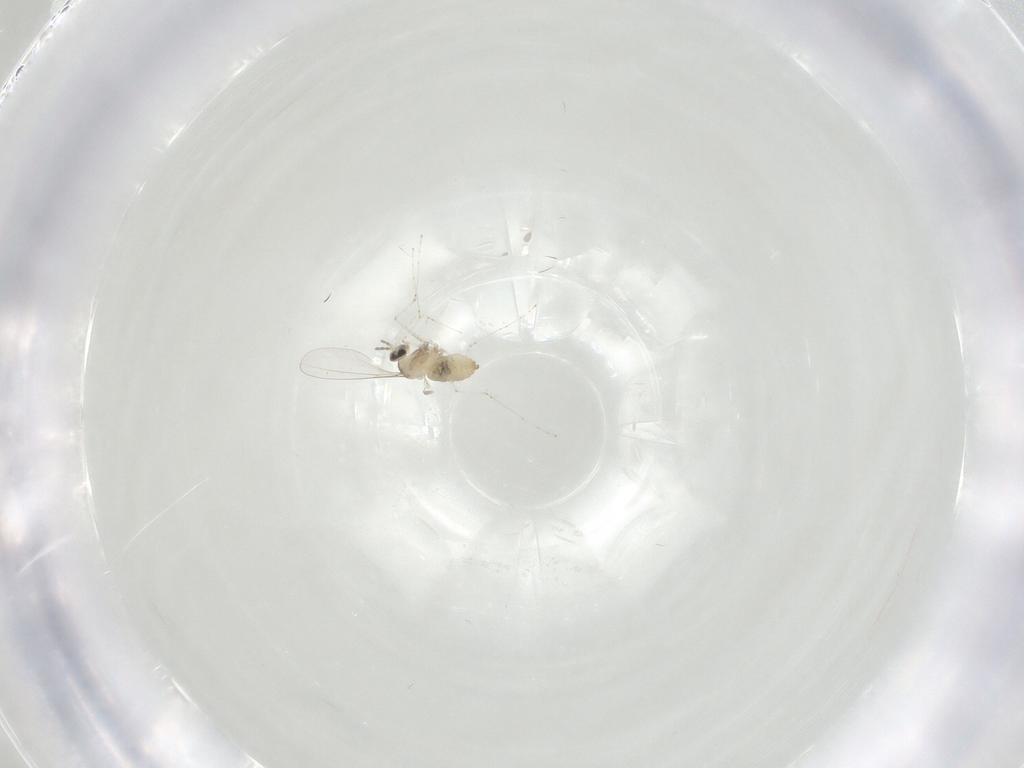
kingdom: Animalia
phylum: Arthropoda
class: Insecta
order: Diptera
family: Cecidomyiidae
